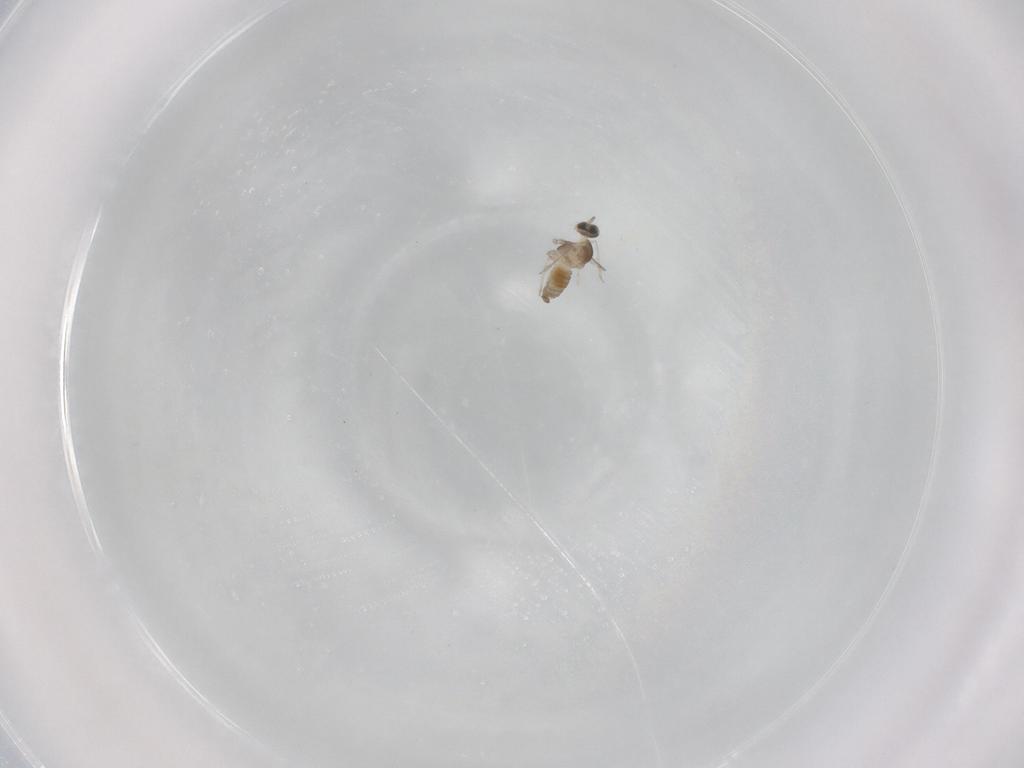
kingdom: Animalia
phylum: Arthropoda
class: Insecta
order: Diptera
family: Cecidomyiidae
